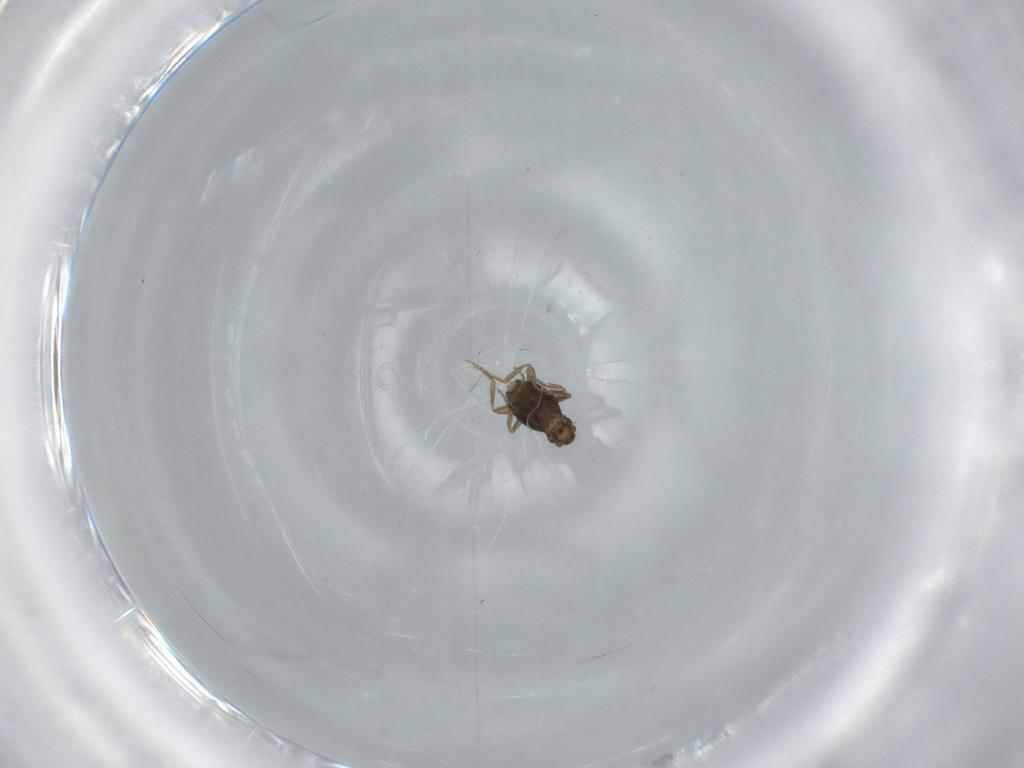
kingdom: Animalia
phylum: Arthropoda
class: Insecta
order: Diptera
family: Phoridae
